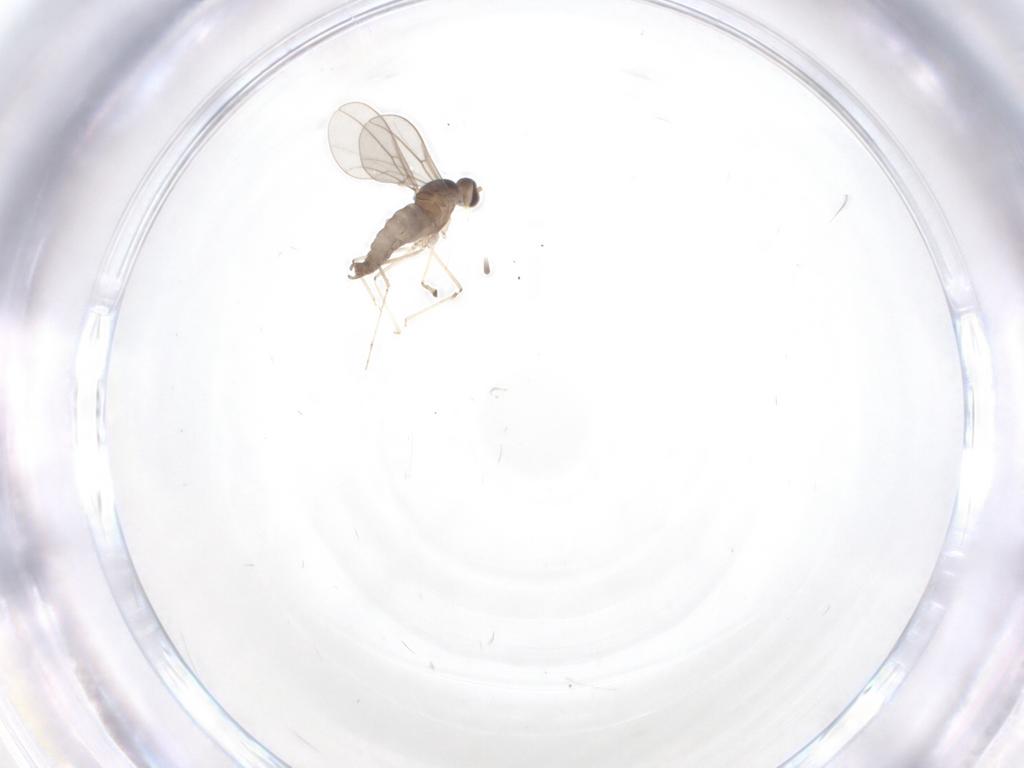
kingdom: Animalia
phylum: Arthropoda
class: Insecta
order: Diptera
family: Cecidomyiidae
